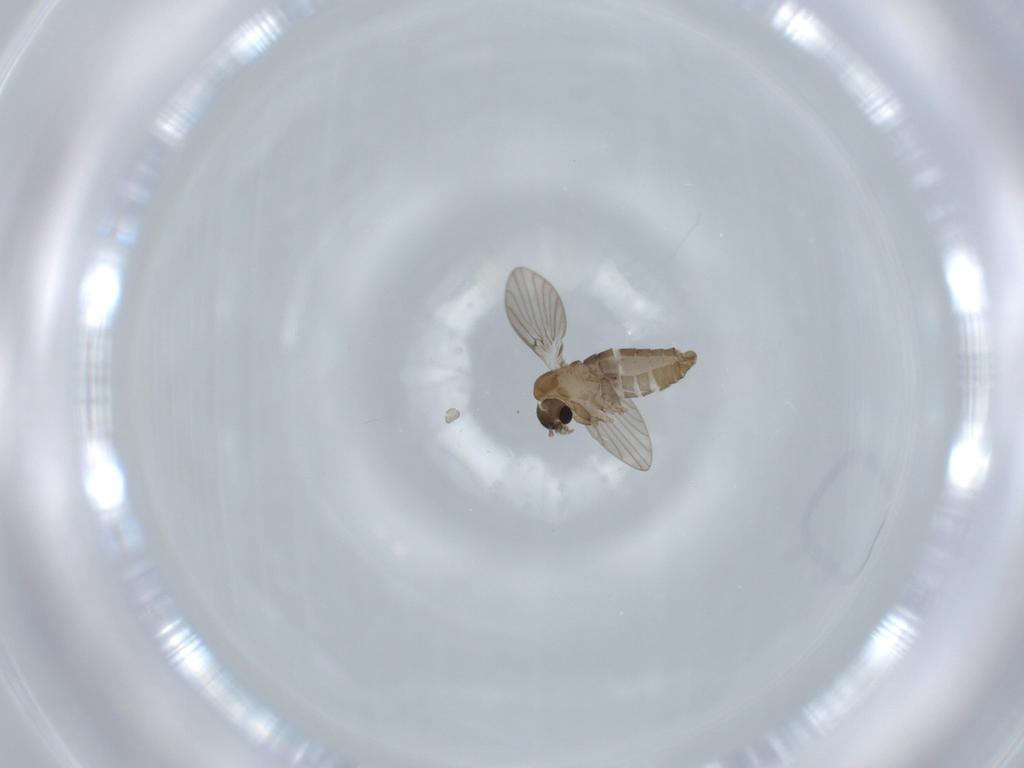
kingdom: Animalia
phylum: Arthropoda
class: Insecta
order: Diptera
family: Psychodidae
